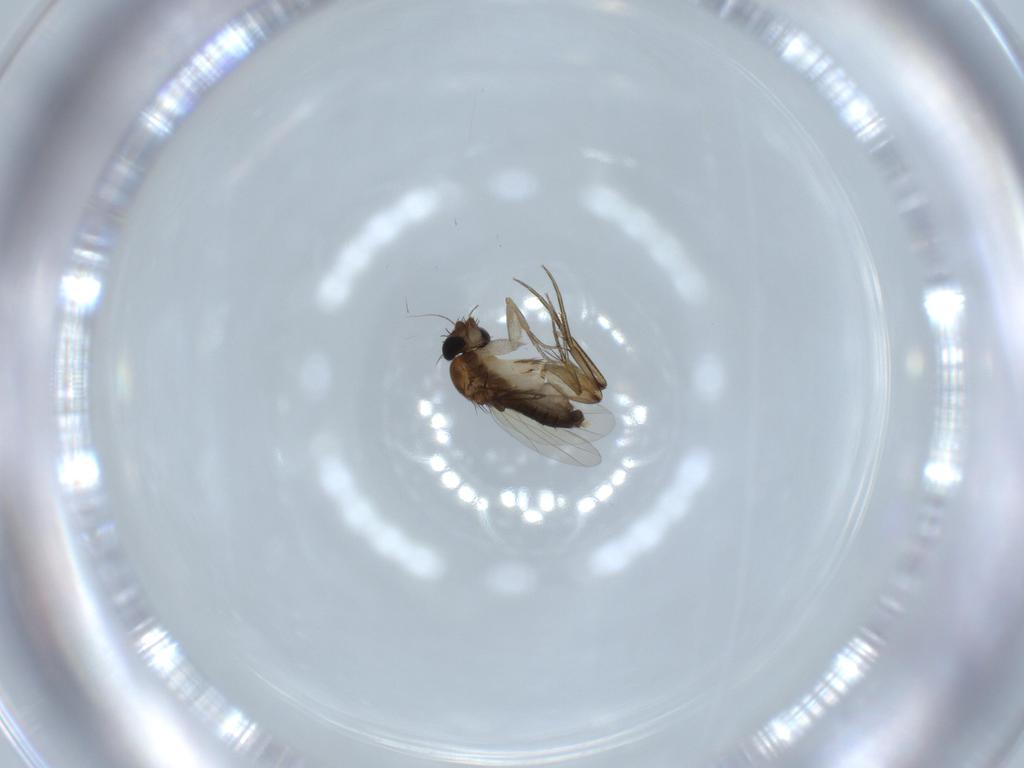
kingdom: Animalia
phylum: Arthropoda
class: Insecta
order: Diptera
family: Phoridae
